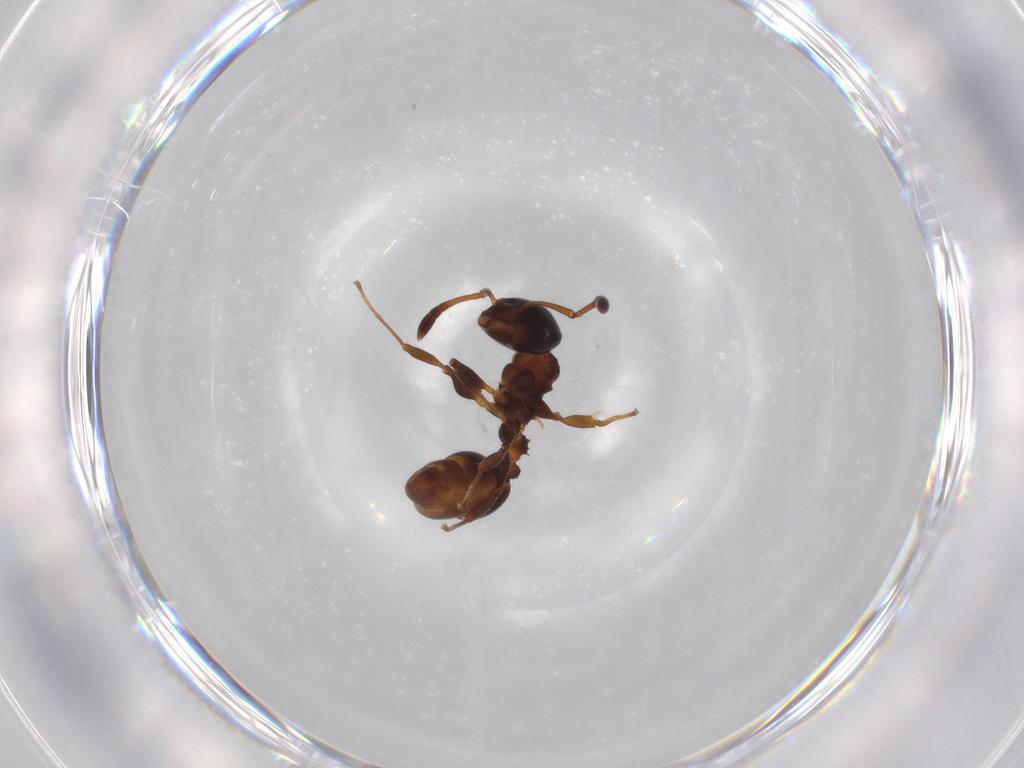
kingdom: Animalia
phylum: Arthropoda
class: Insecta
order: Hymenoptera
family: Formicidae
